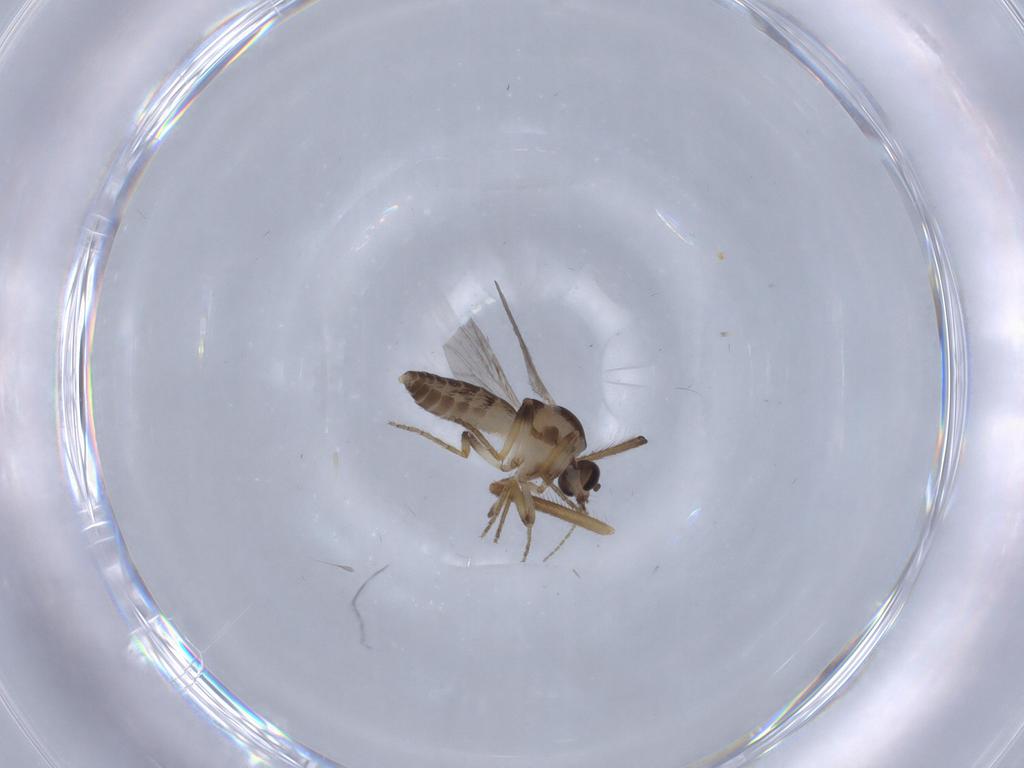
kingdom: Animalia
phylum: Arthropoda
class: Insecta
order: Diptera
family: Ceratopogonidae
